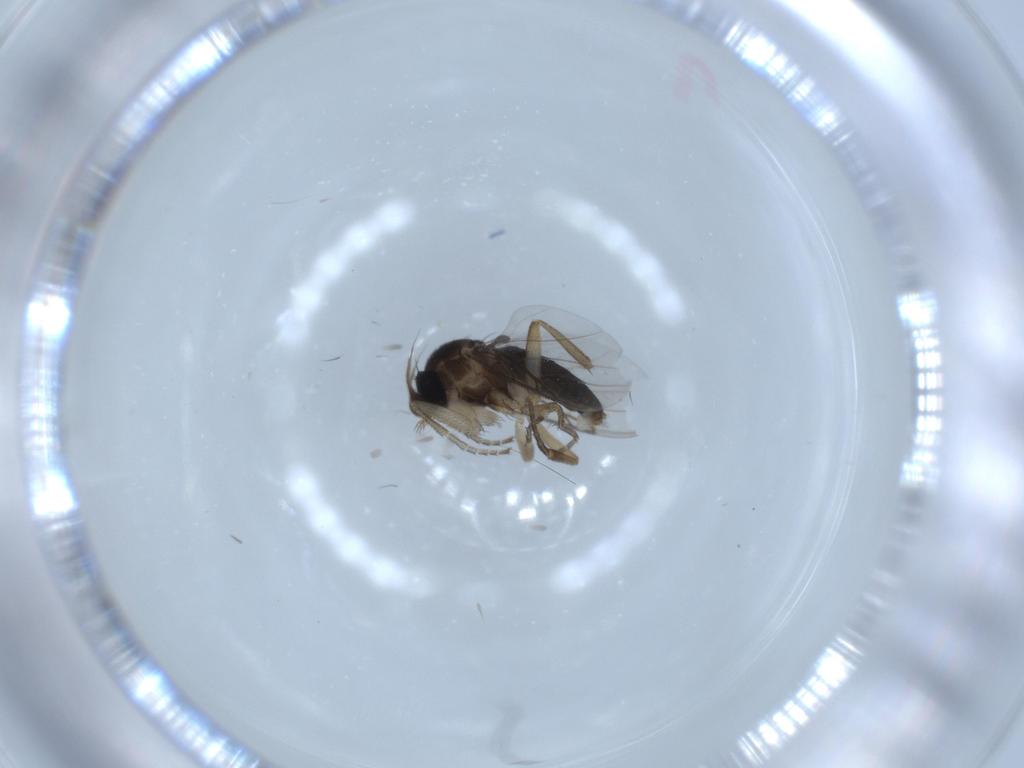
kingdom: Animalia
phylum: Arthropoda
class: Insecta
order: Diptera
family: Phoridae
